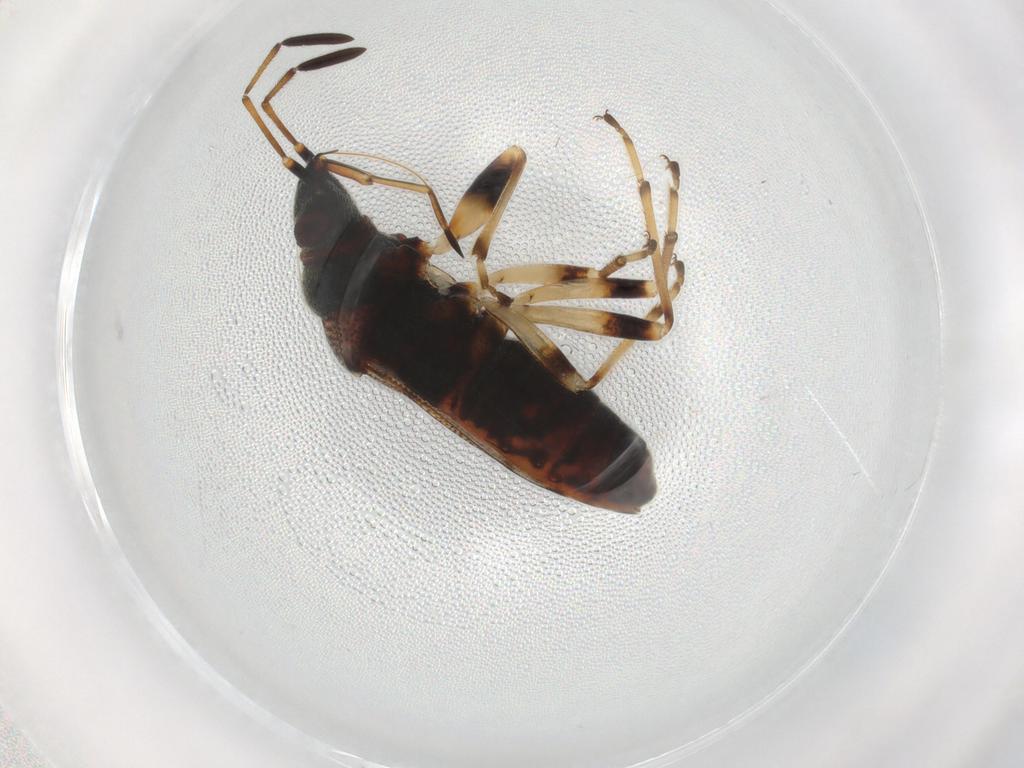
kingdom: Animalia
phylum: Arthropoda
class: Insecta
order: Hemiptera
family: Rhyparochromidae
